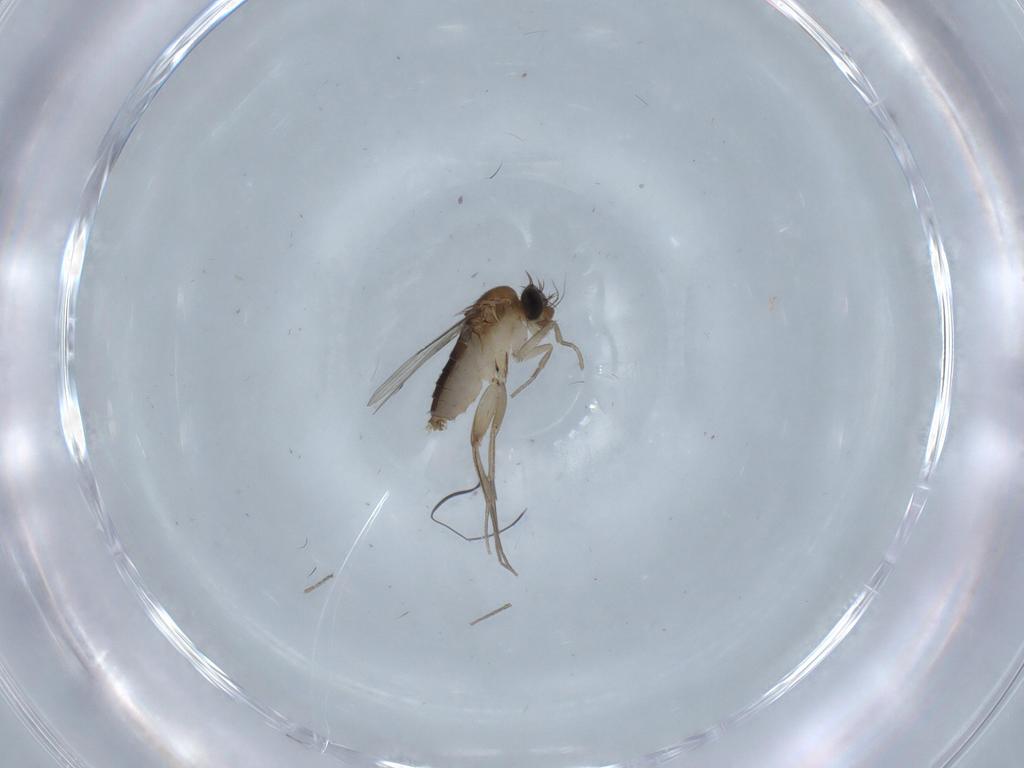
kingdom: Animalia
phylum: Arthropoda
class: Insecta
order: Diptera
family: Phoridae
